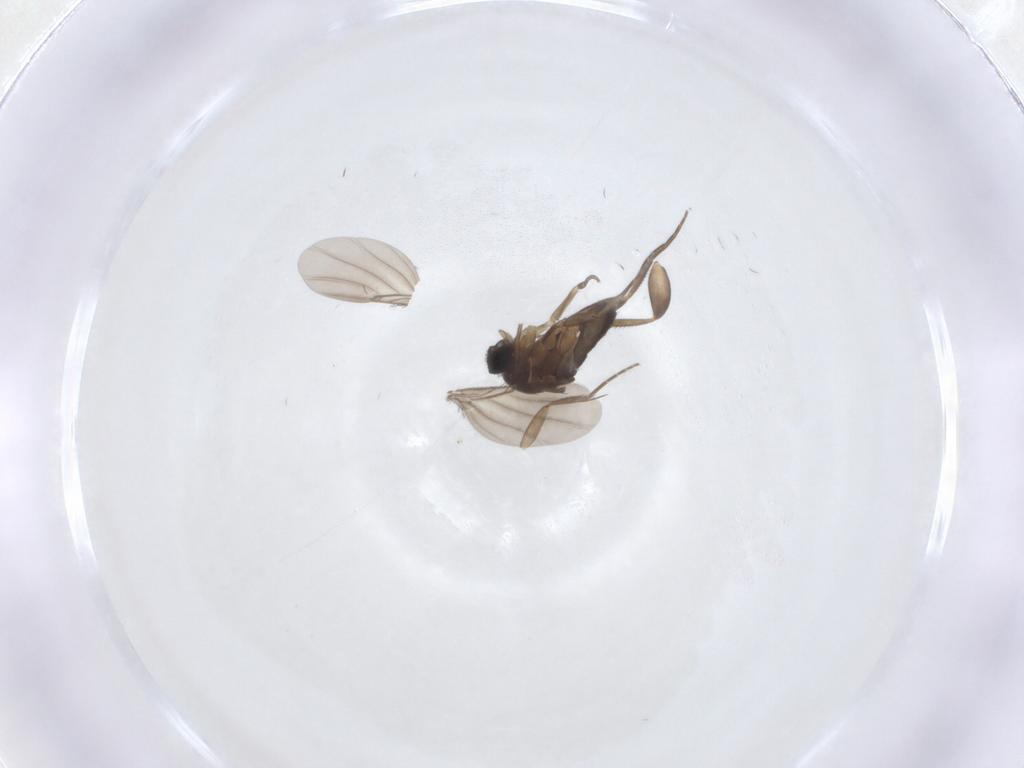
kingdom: Animalia
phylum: Arthropoda
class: Insecta
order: Diptera
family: Phoridae
